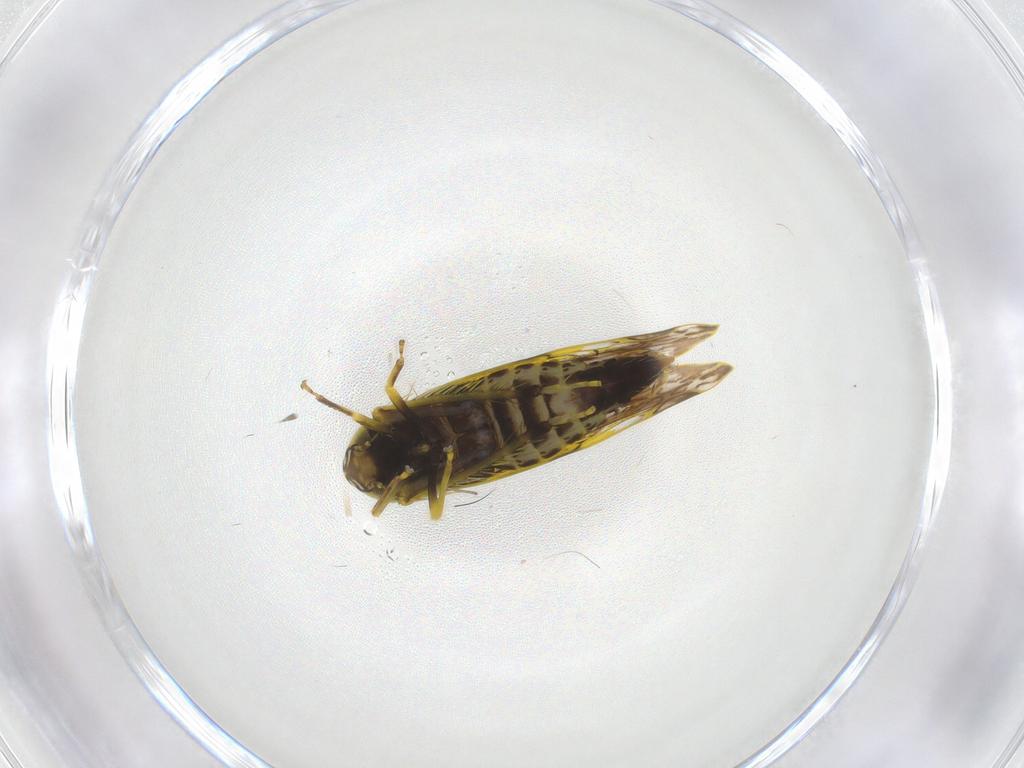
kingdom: Animalia
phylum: Arthropoda
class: Insecta
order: Hemiptera
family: Cicadellidae
